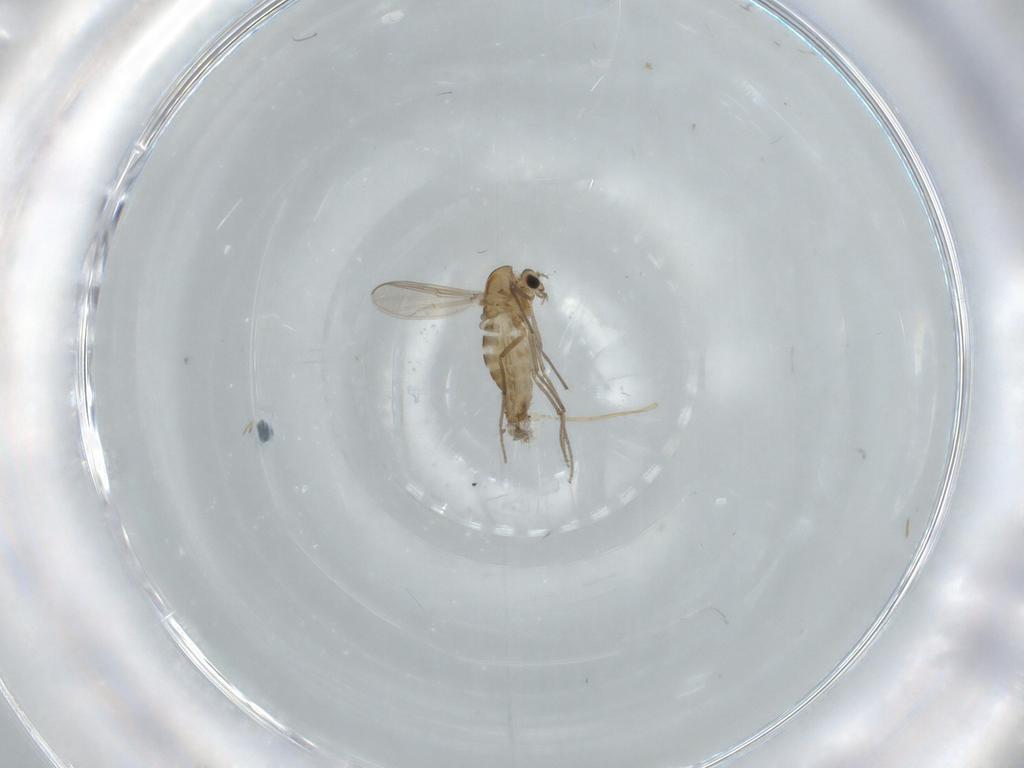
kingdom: Animalia
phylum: Arthropoda
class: Insecta
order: Diptera
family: Chironomidae
